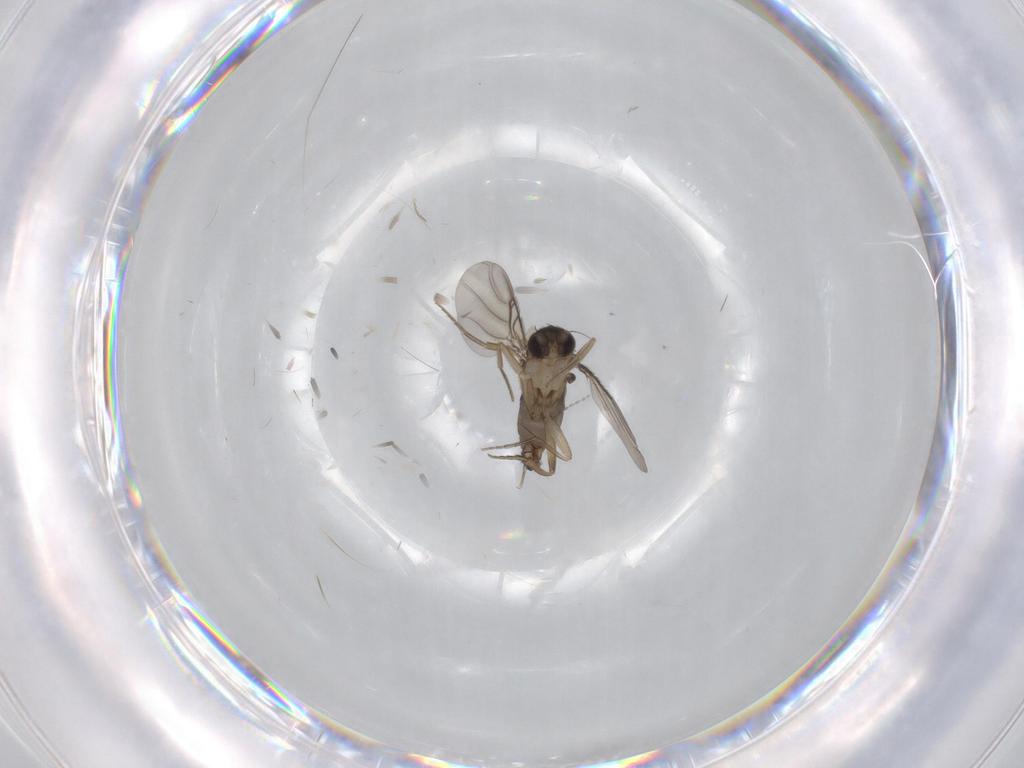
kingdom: Animalia
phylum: Arthropoda
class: Insecta
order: Diptera
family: Phoridae
